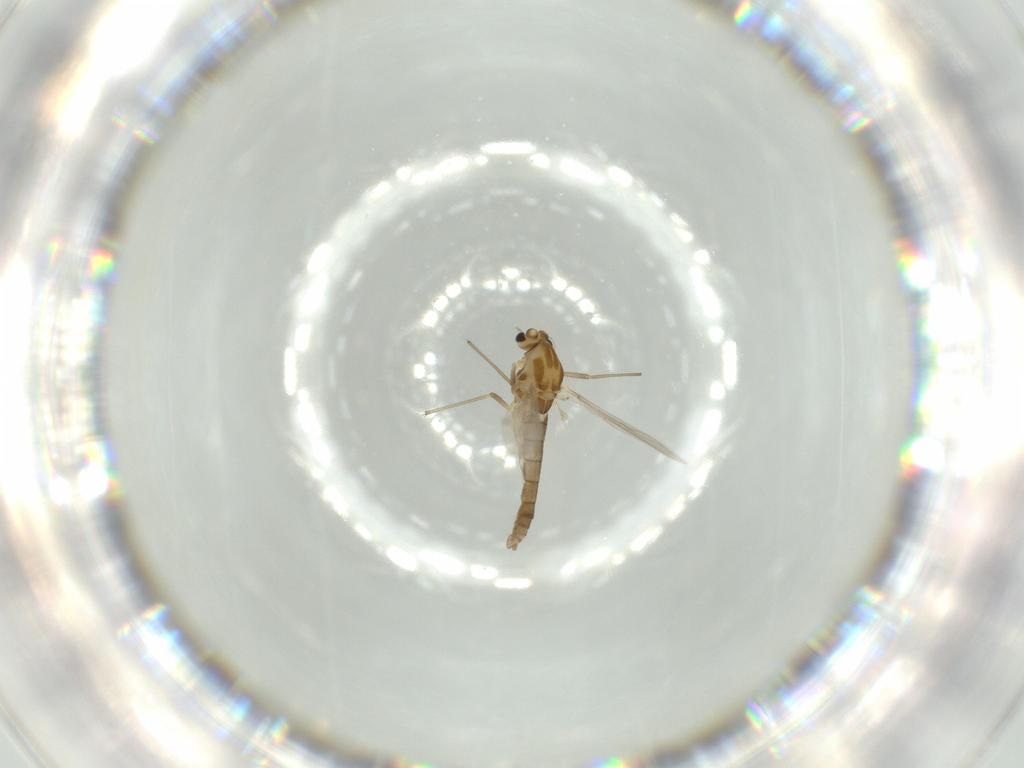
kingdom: Animalia
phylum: Arthropoda
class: Insecta
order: Diptera
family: Chironomidae
